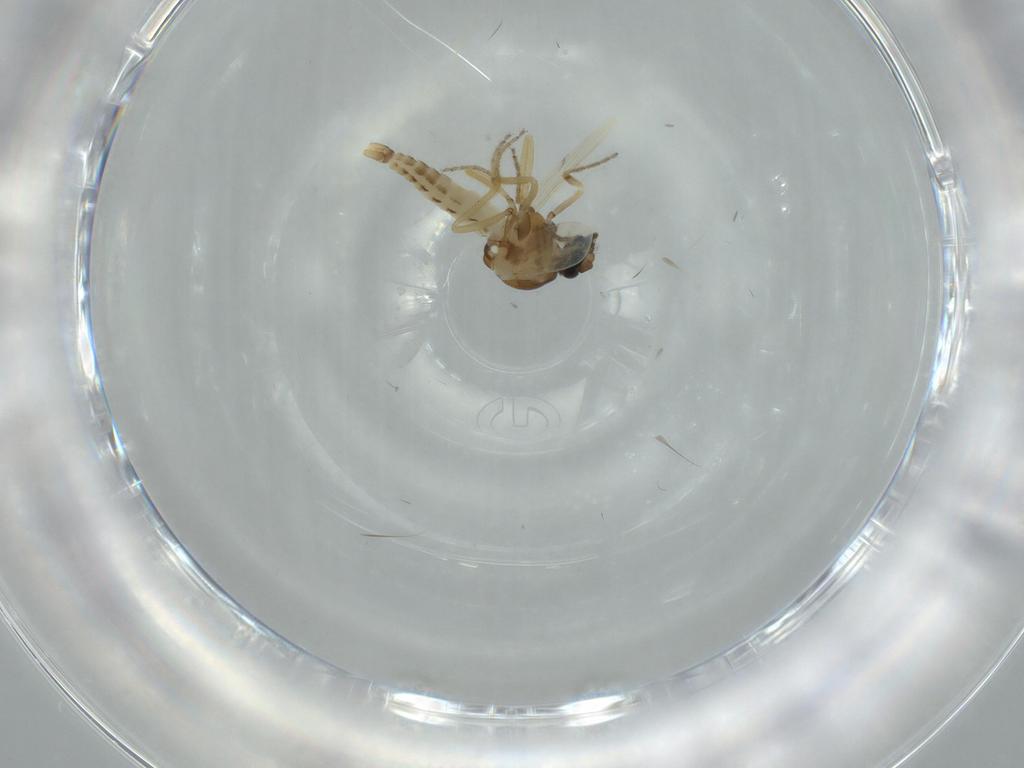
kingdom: Animalia
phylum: Arthropoda
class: Insecta
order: Diptera
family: Ceratopogonidae
